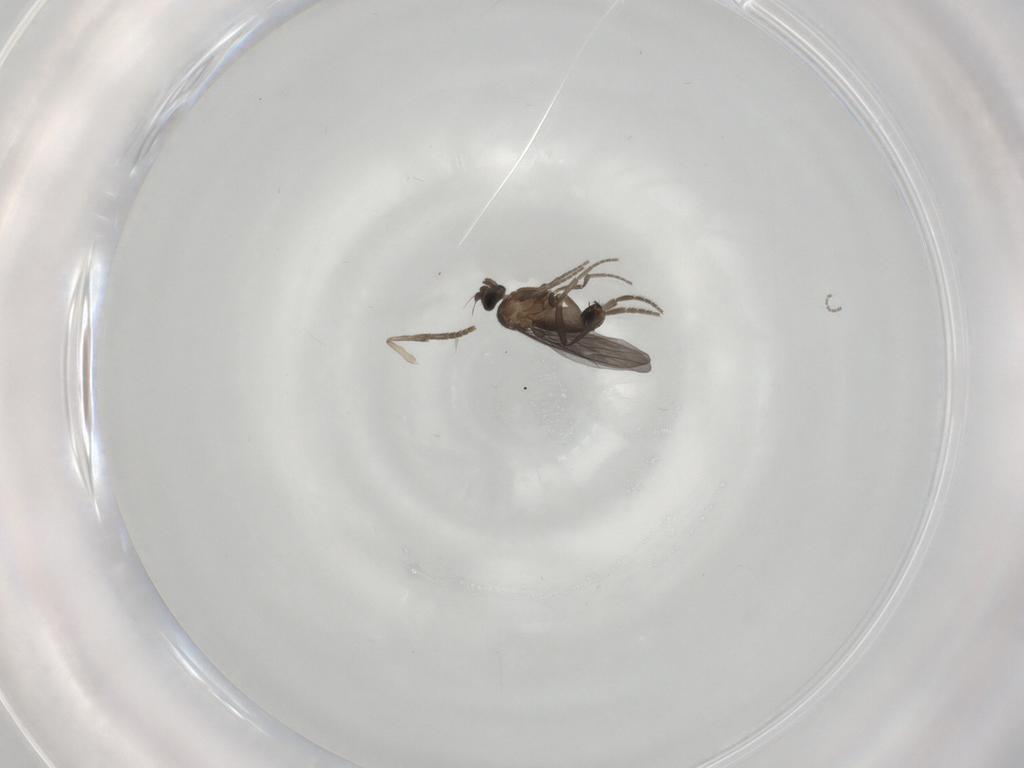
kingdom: Animalia
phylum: Arthropoda
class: Insecta
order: Diptera
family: Phoridae
